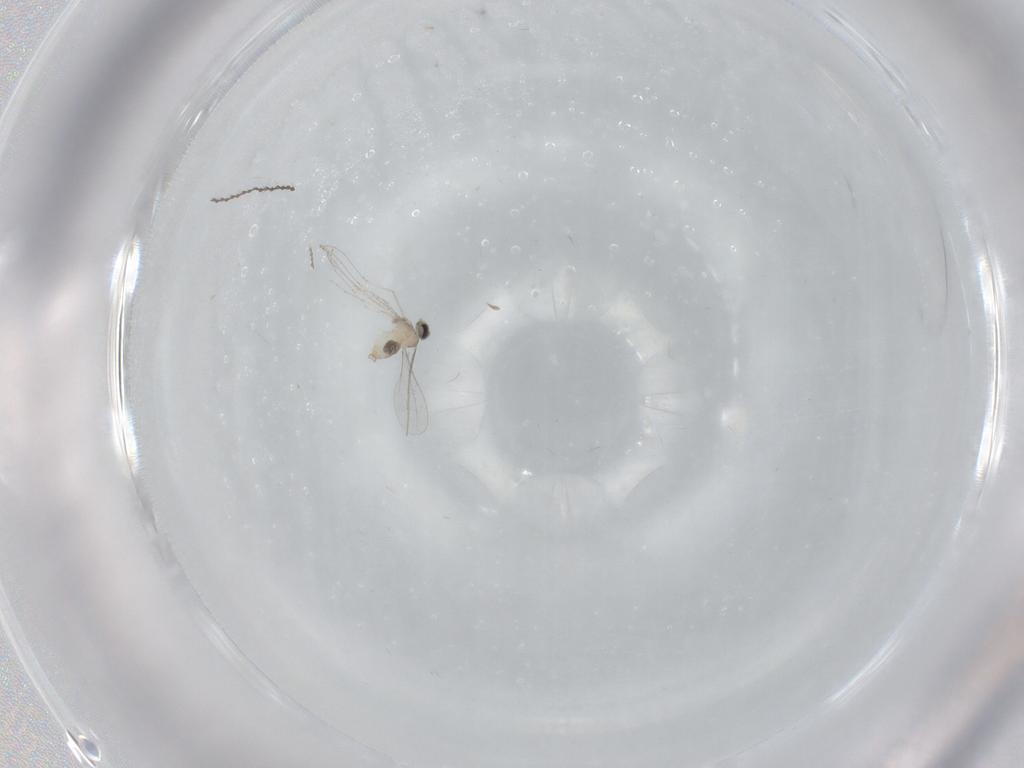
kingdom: Animalia
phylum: Arthropoda
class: Insecta
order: Diptera
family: Cecidomyiidae
